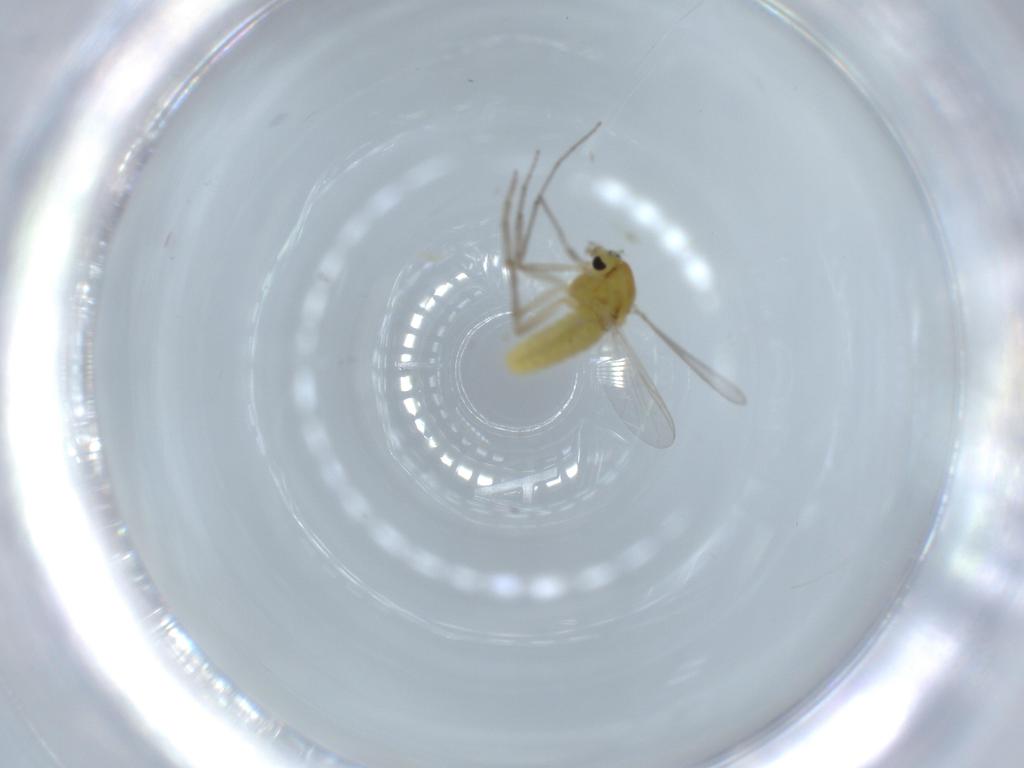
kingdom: Animalia
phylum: Arthropoda
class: Insecta
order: Diptera
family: Chironomidae
